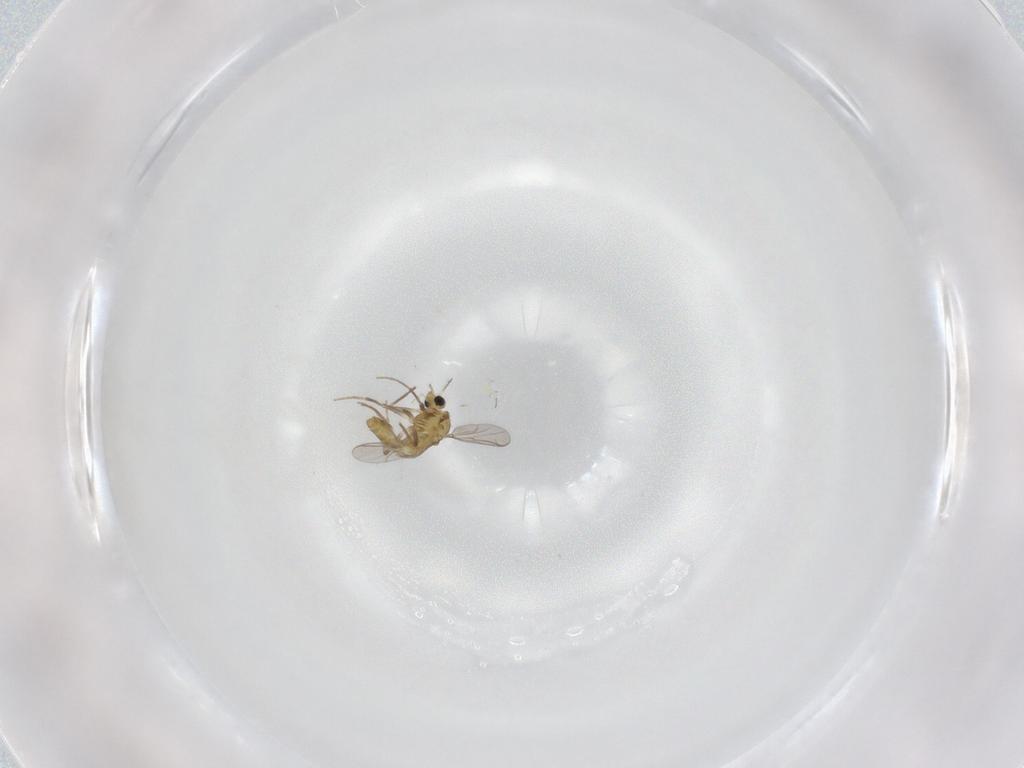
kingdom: Animalia
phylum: Arthropoda
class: Insecta
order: Diptera
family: Chironomidae
